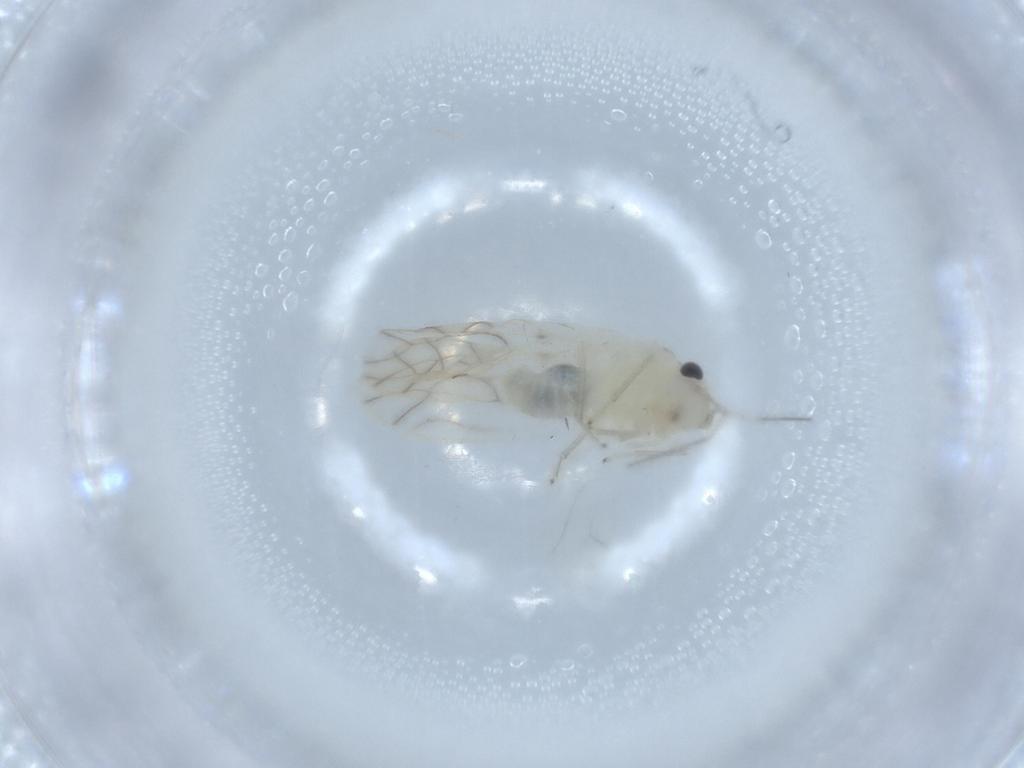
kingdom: Animalia
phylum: Arthropoda
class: Insecta
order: Psocodea
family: Caeciliusidae
